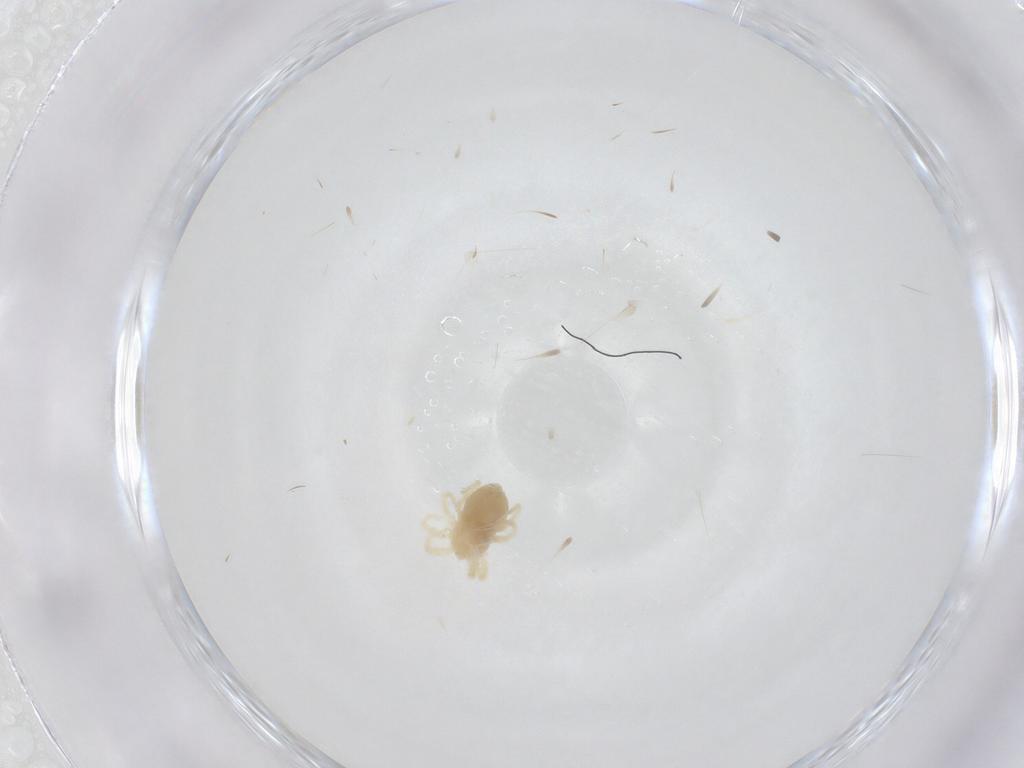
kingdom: Animalia
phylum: Arthropoda
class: Arachnida
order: Trombidiformes
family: Anystidae
